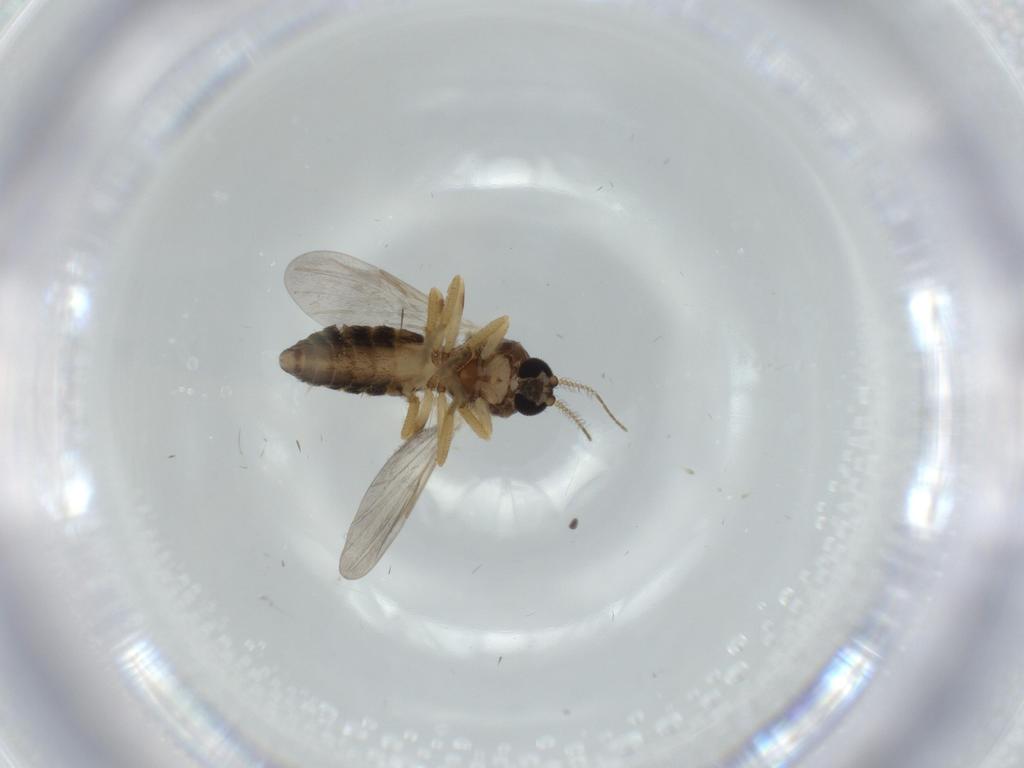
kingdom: Animalia
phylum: Arthropoda
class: Insecta
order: Diptera
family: Ceratopogonidae
